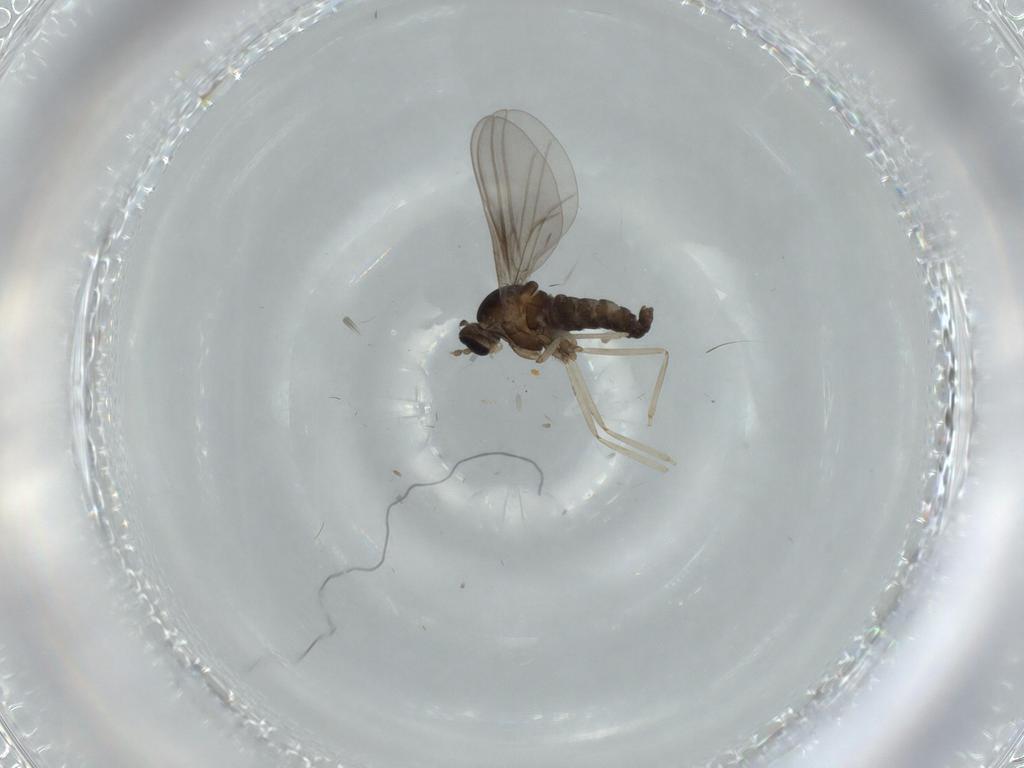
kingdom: Animalia
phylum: Arthropoda
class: Insecta
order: Diptera
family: Cecidomyiidae
